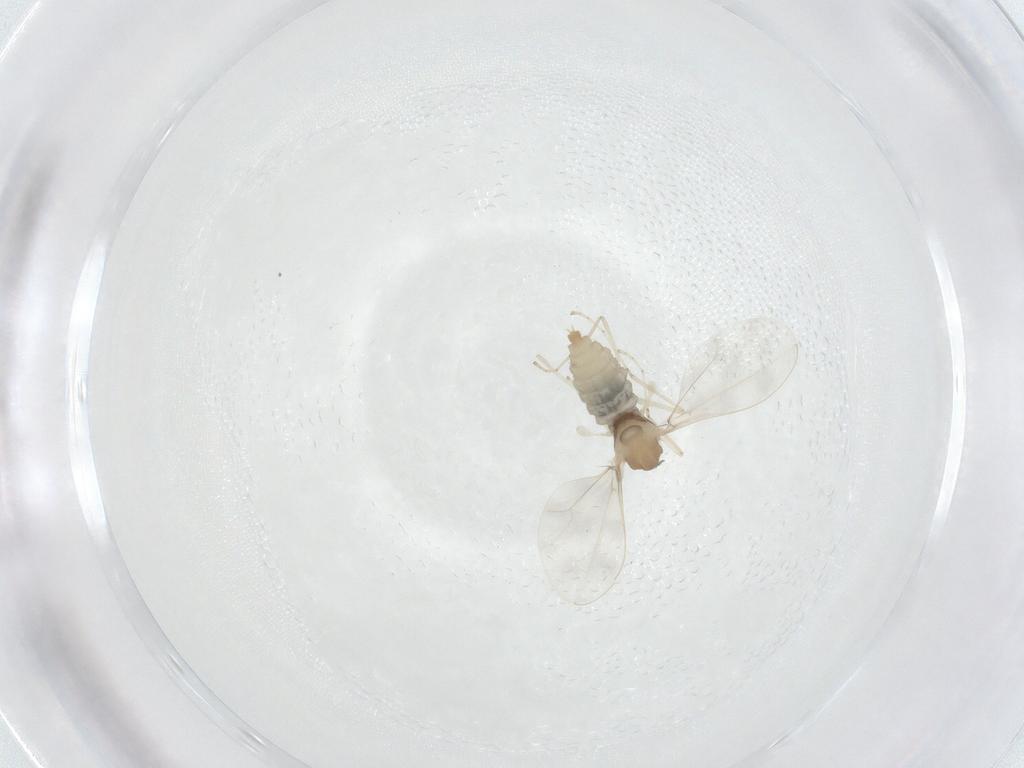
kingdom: Animalia
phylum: Arthropoda
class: Insecta
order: Diptera
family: Cecidomyiidae
